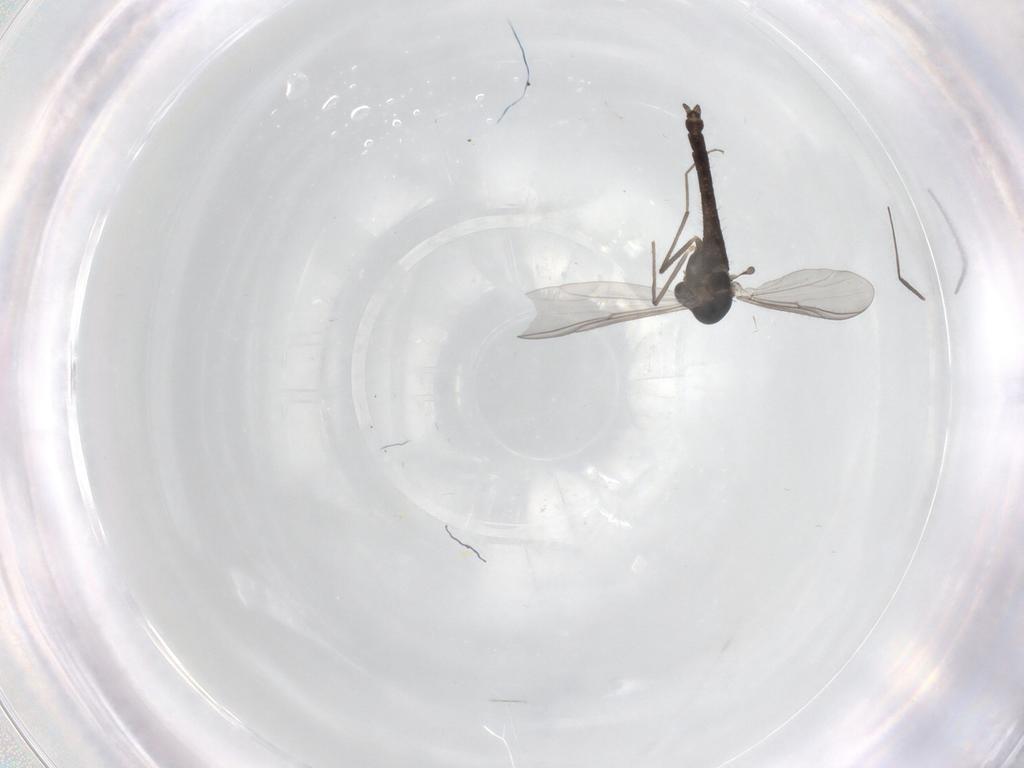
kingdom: Animalia
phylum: Arthropoda
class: Insecta
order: Diptera
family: Chironomidae
